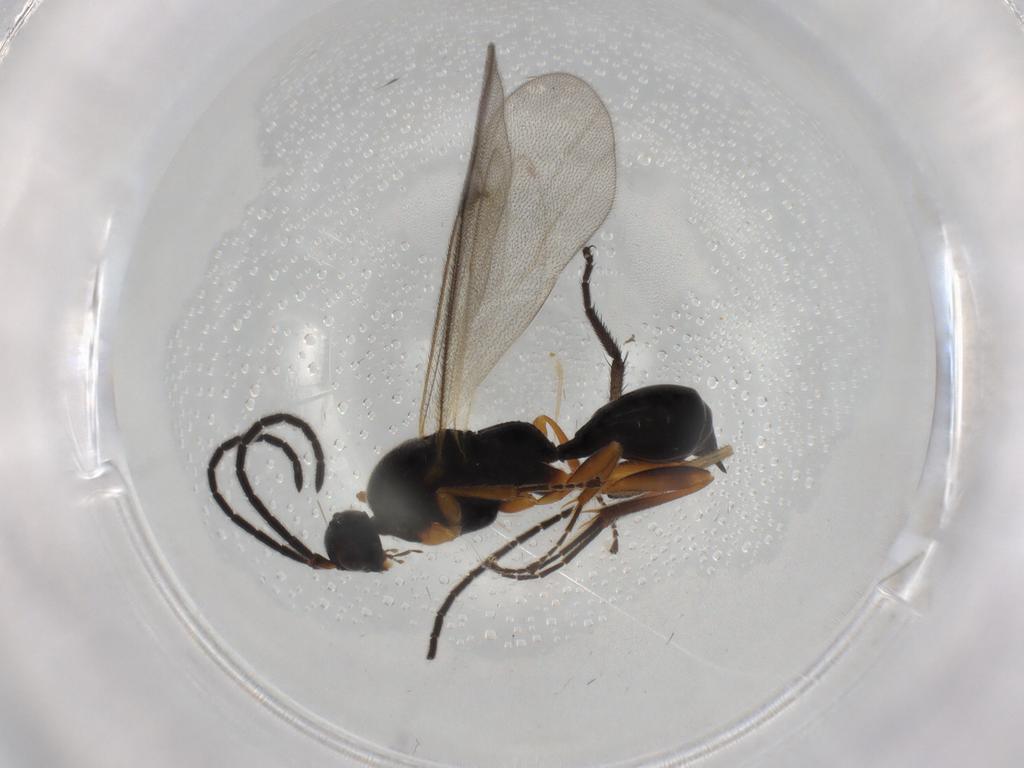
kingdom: Animalia
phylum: Arthropoda
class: Insecta
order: Hymenoptera
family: Proctotrupidae
